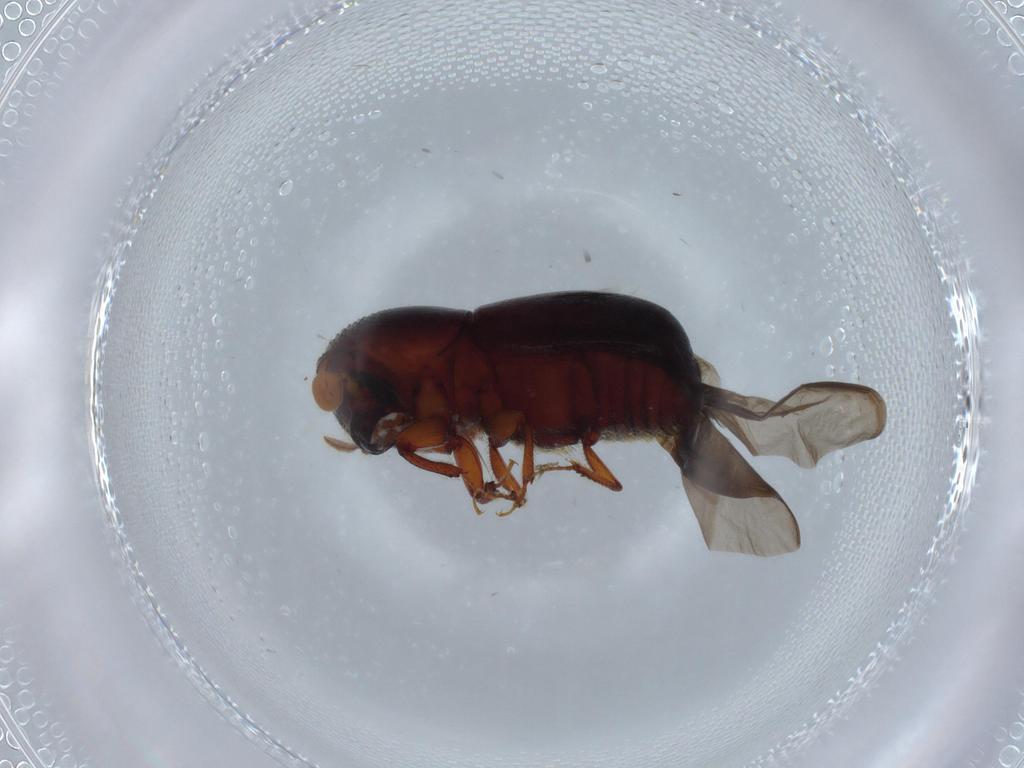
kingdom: Animalia
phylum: Arthropoda
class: Insecta
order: Coleoptera
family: Curculionidae
